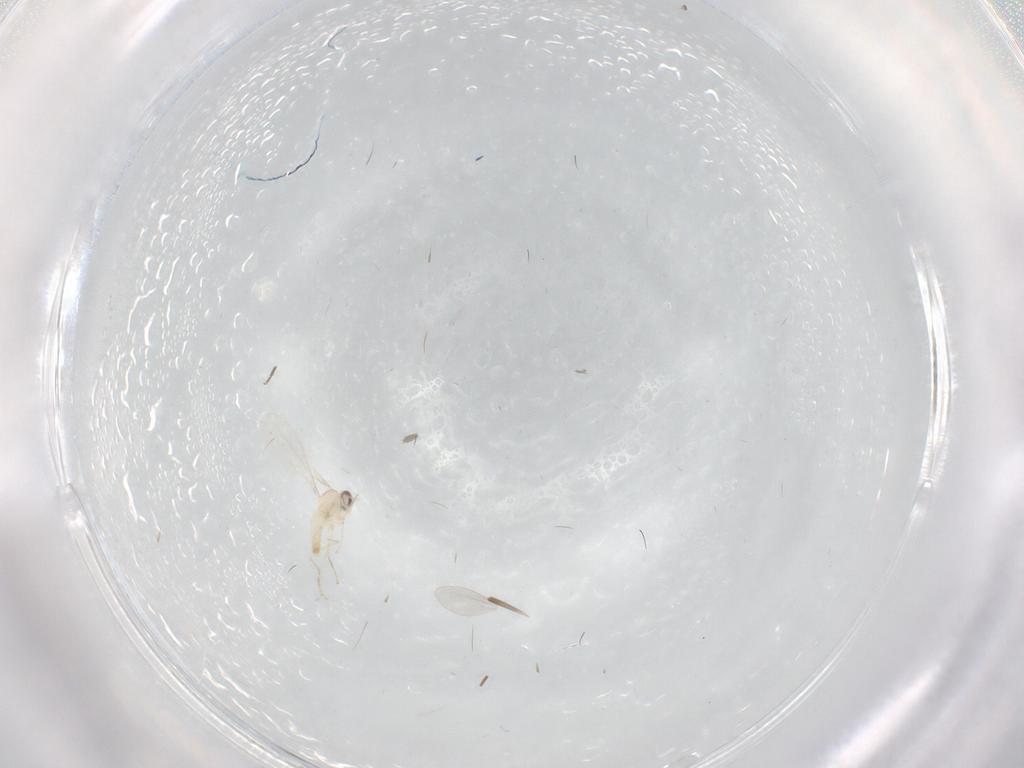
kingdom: Animalia
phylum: Arthropoda
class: Insecta
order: Diptera
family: Cecidomyiidae
